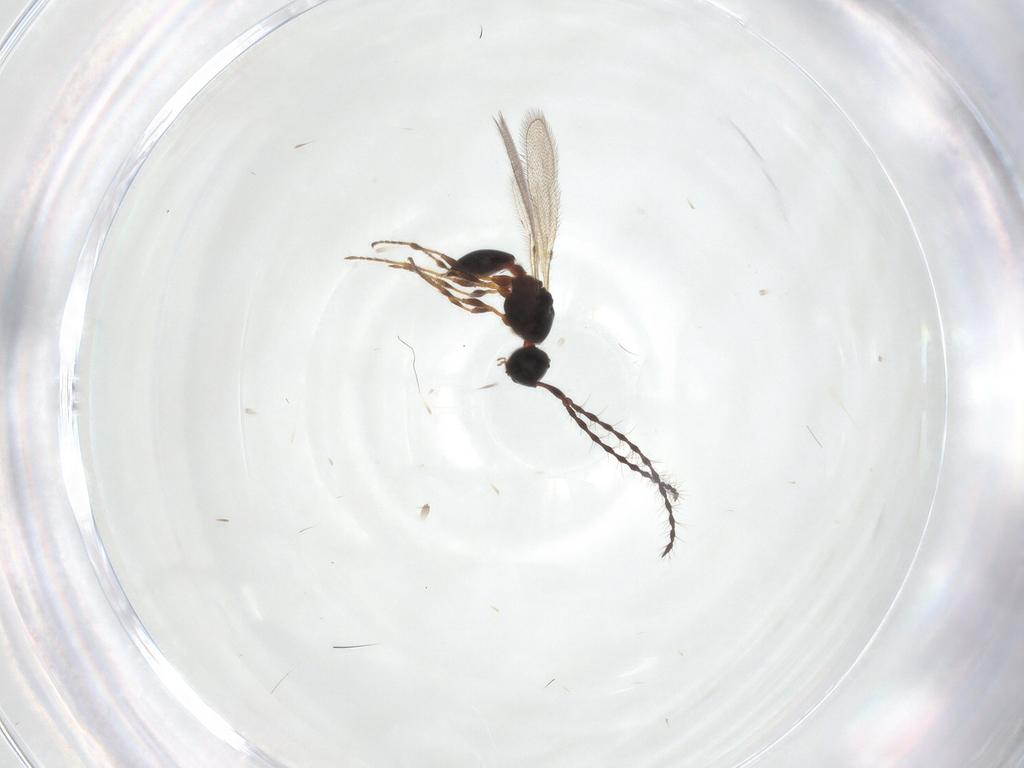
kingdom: Animalia
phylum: Arthropoda
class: Insecta
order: Hymenoptera
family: Diapriidae
